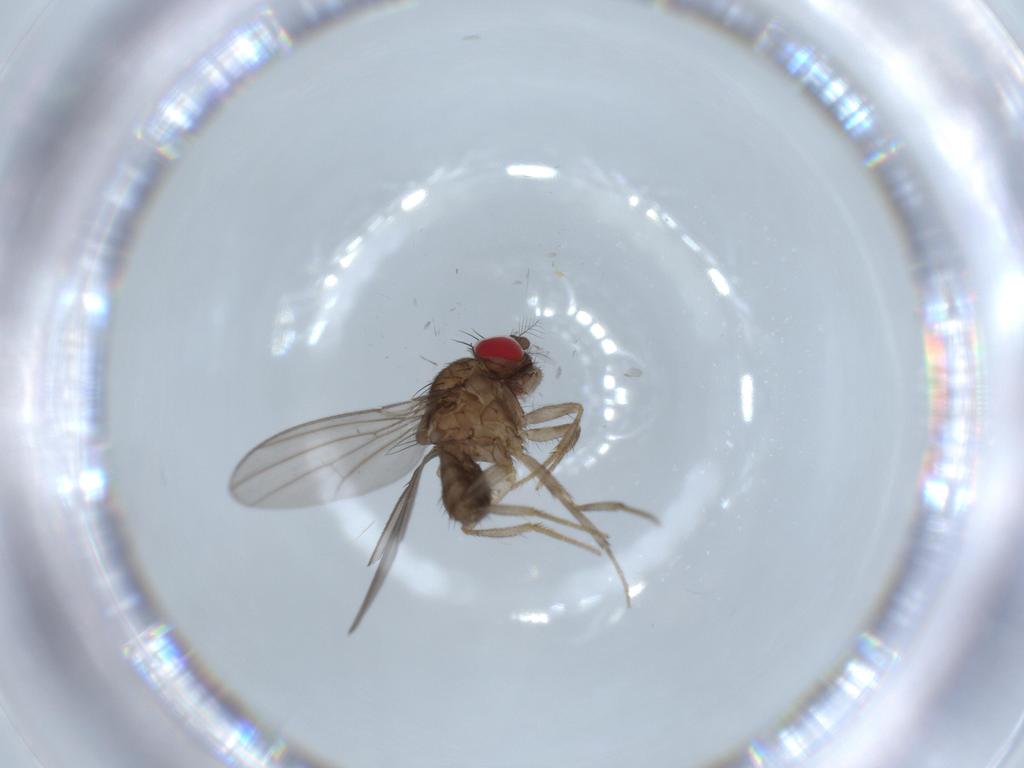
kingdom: Animalia
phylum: Arthropoda
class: Insecta
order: Diptera
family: Drosophilidae
